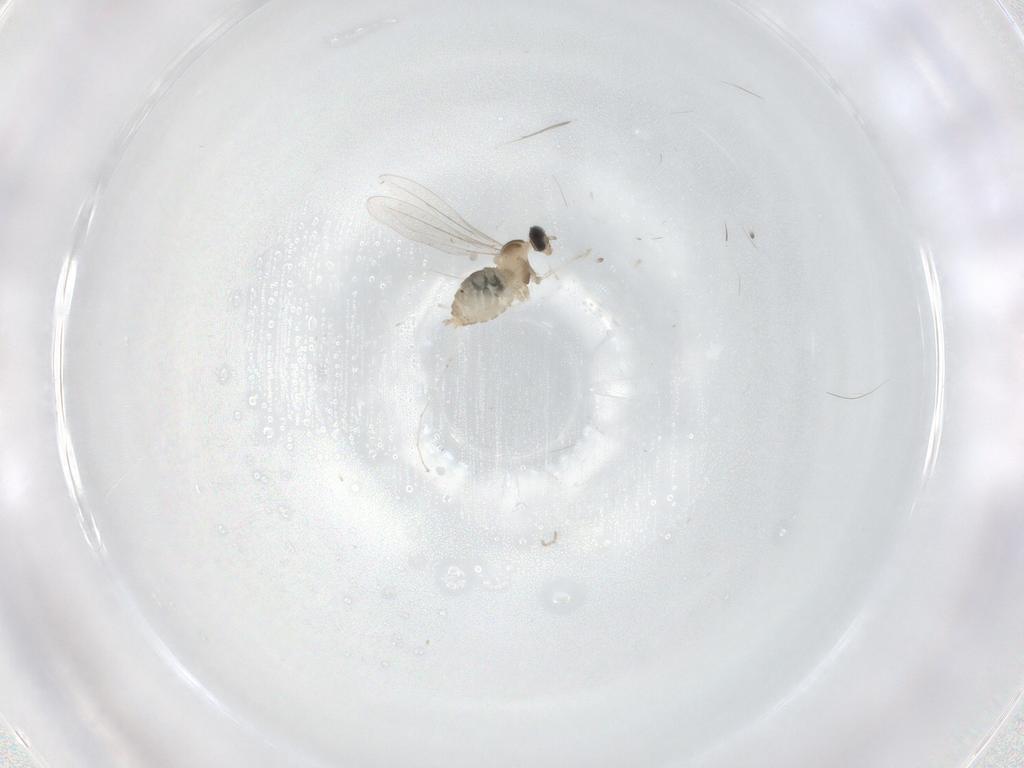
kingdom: Animalia
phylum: Arthropoda
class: Insecta
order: Diptera
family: Cecidomyiidae
